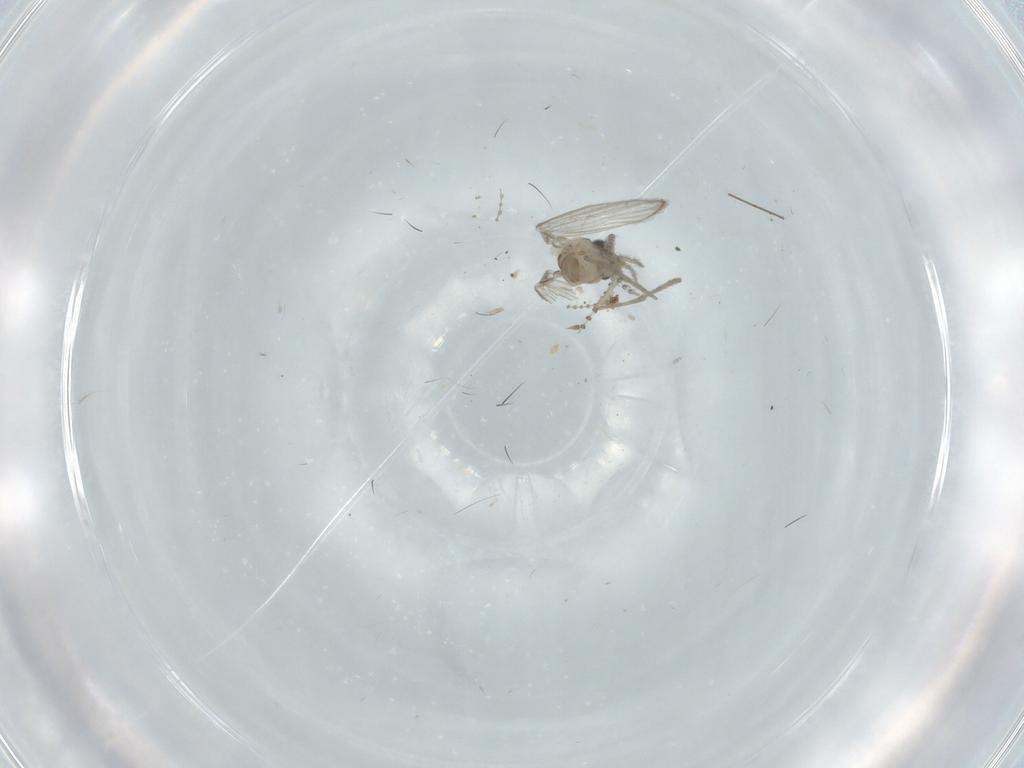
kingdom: Animalia
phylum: Arthropoda
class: Insecta
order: Diptera
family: Psychodidae
